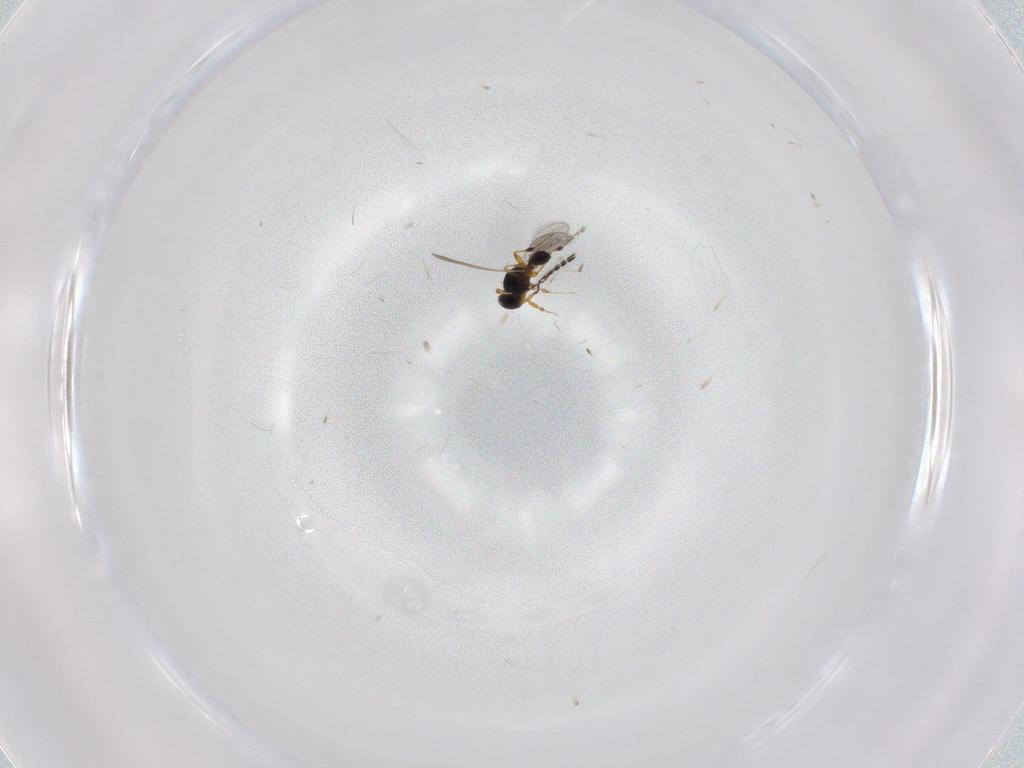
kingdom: Animalia
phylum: Arthropoda
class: Insecta
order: Hymenoptera
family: Platygastridae
